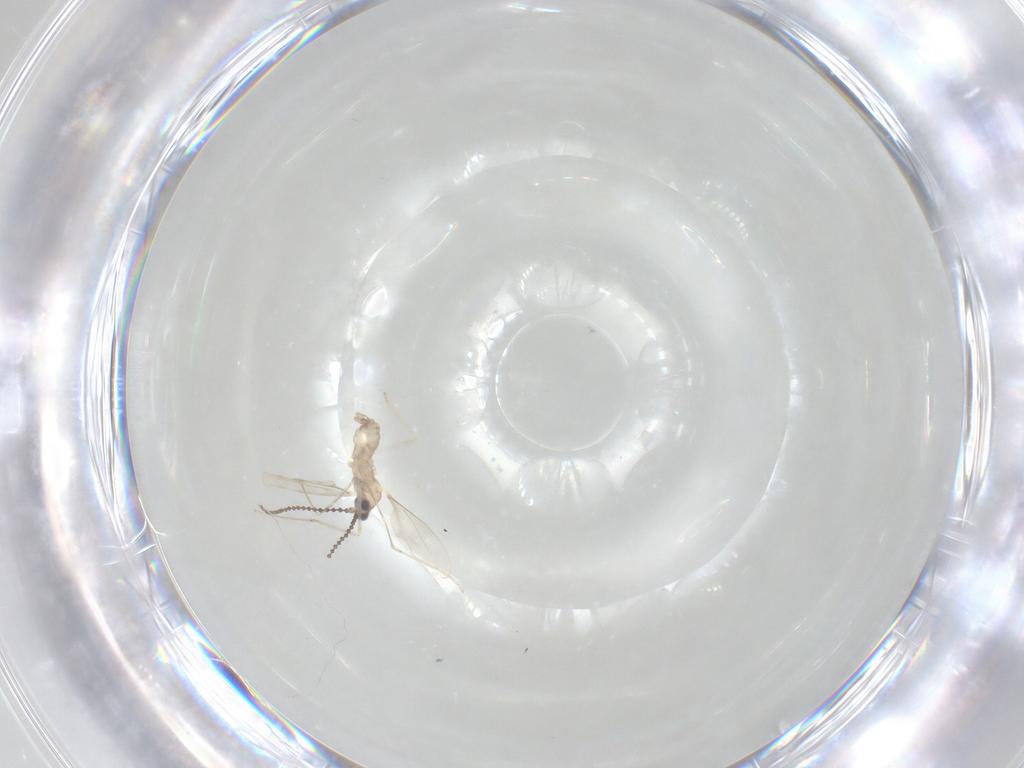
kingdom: Animalia
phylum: Arthropoda
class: Insecta
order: Diptera
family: Cecidomyiidae
